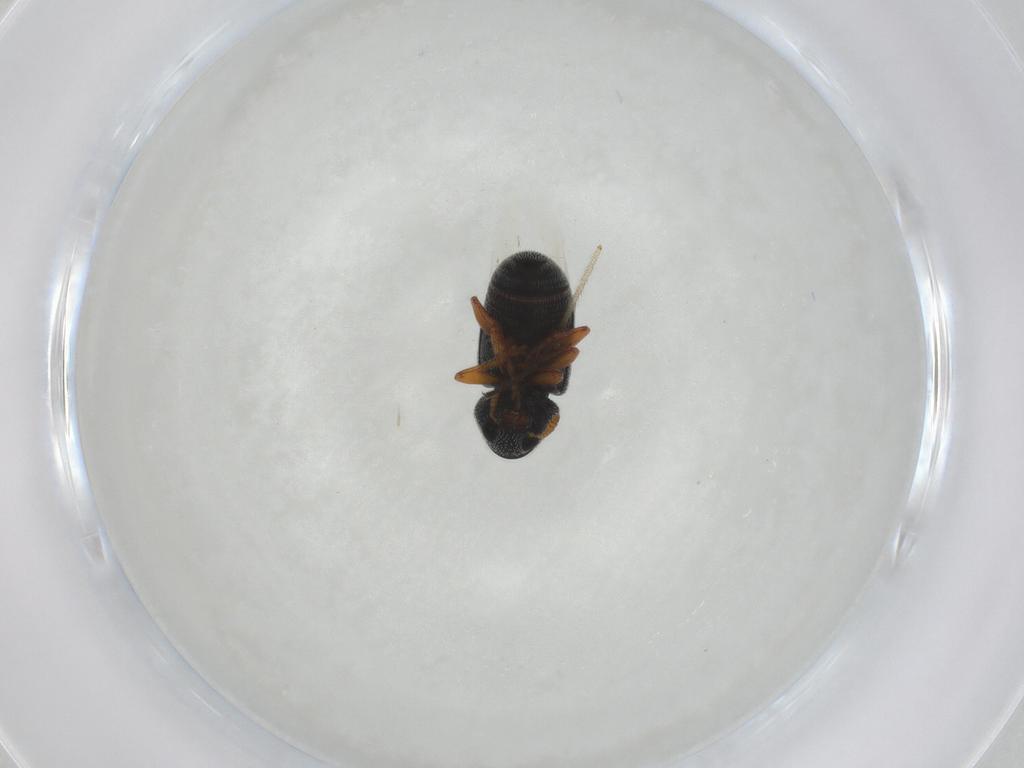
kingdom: Animalia
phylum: Arthropoda
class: Insecta
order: Coleoptera
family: Anthribidae
